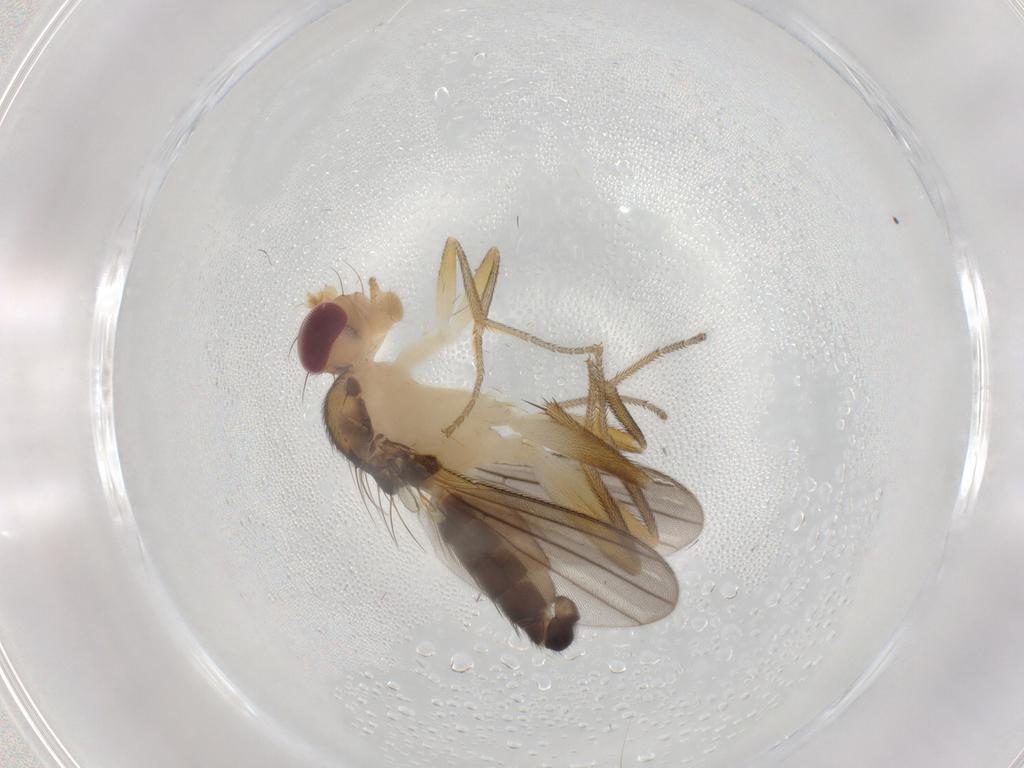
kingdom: Animalia
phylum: Arthropoda
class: Insecta
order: Diptera
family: Clusiidae
